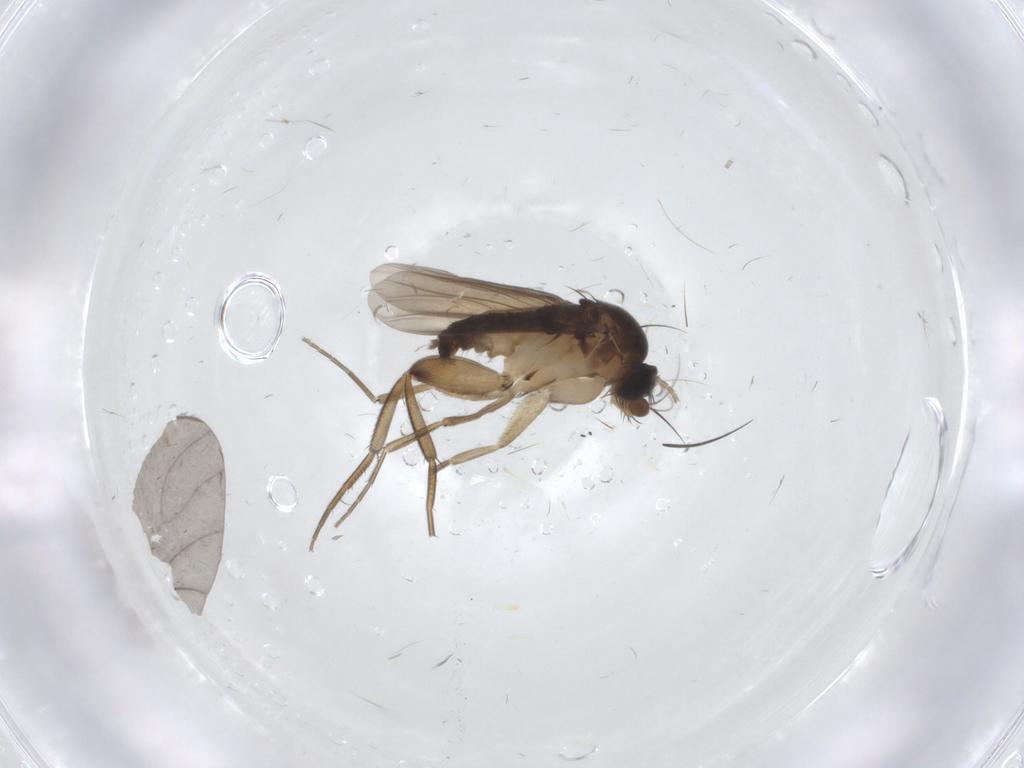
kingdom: Animalia
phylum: Arthropoda
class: Insecta
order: Diptera
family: Phoridae
